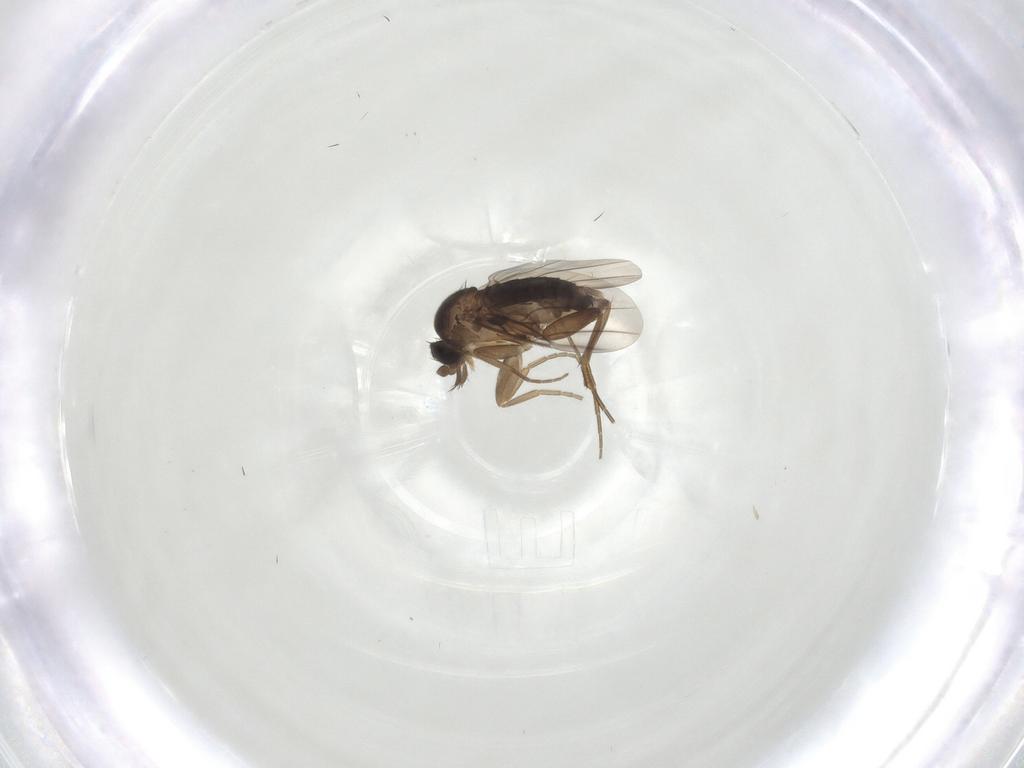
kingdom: Animalia
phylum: Arthropoda
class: Insecta
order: Diptera
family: Phoridae
